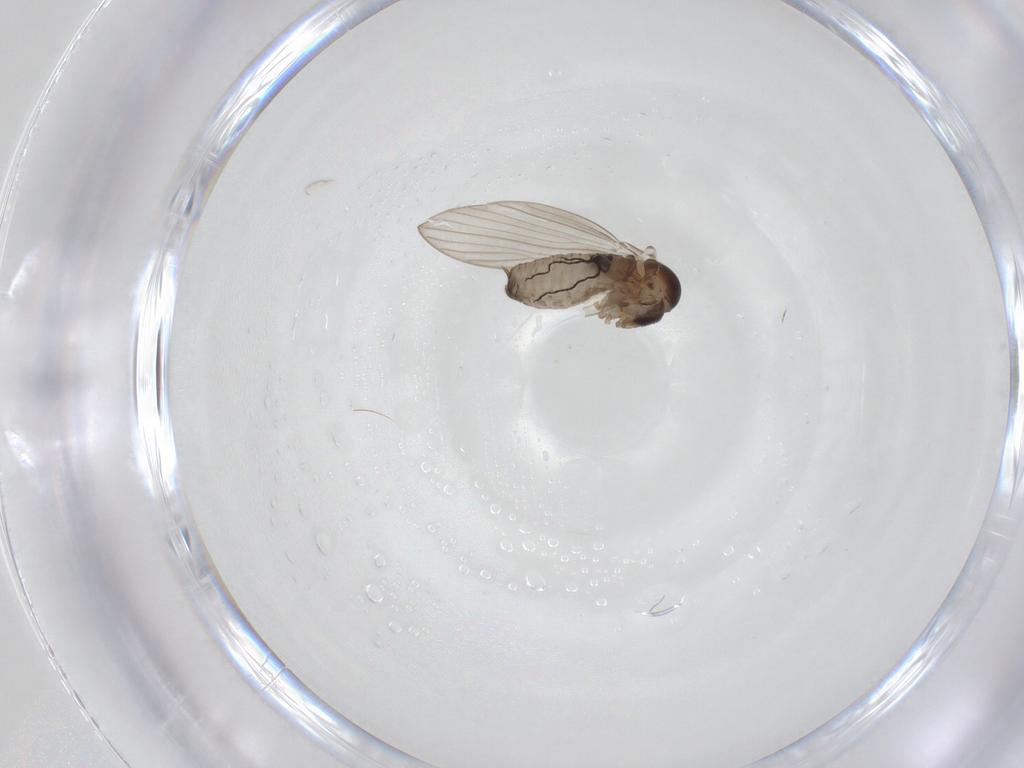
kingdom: Animalia
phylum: Arthropoda
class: Insecta
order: Diptera
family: Psychodidae
